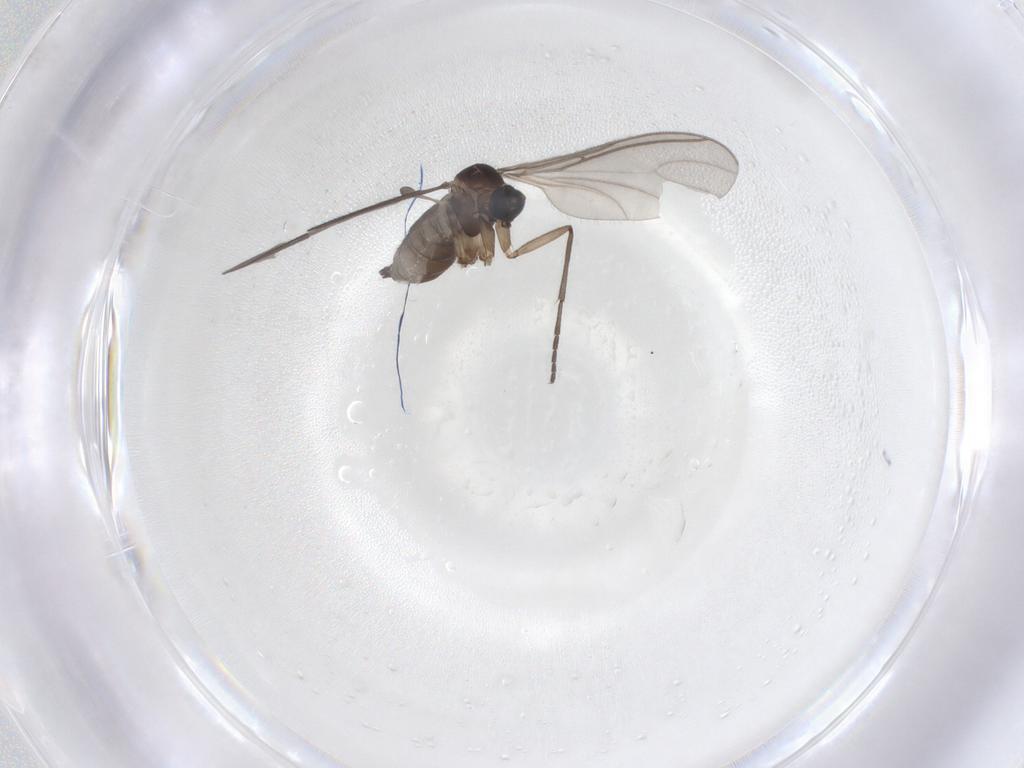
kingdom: Animalia
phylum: Arthropoda
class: Insecta
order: Diptera
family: Sciaridae
